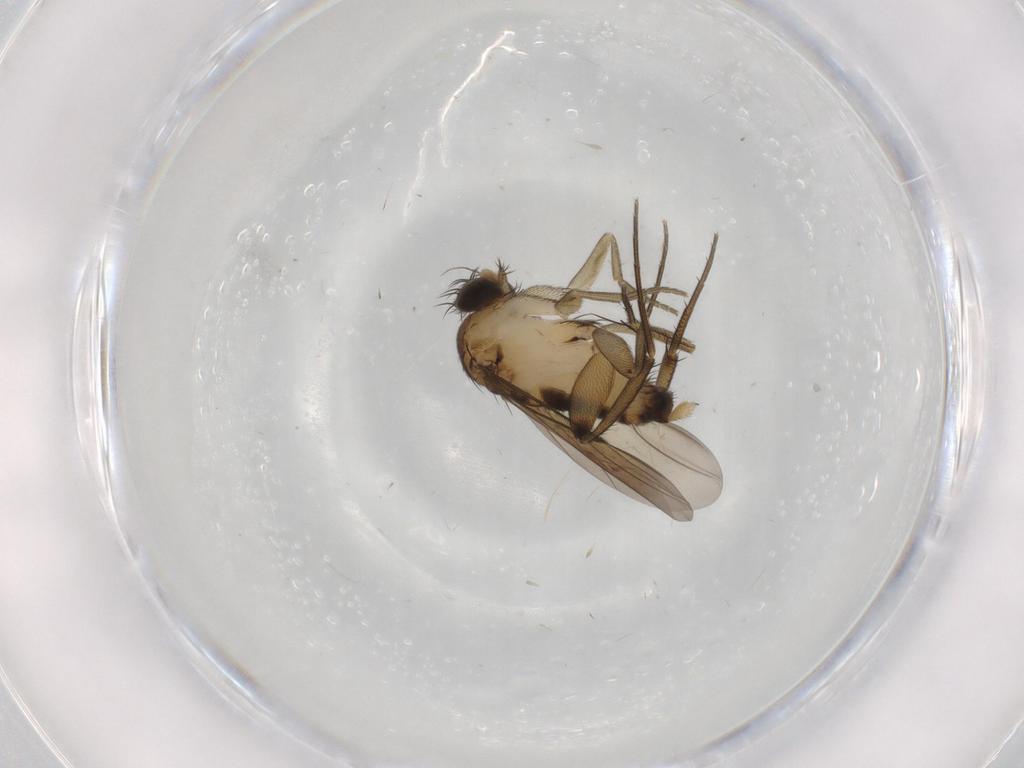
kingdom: Animalia
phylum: Arthropoda
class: Insecta
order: Diptera
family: Phoridae
